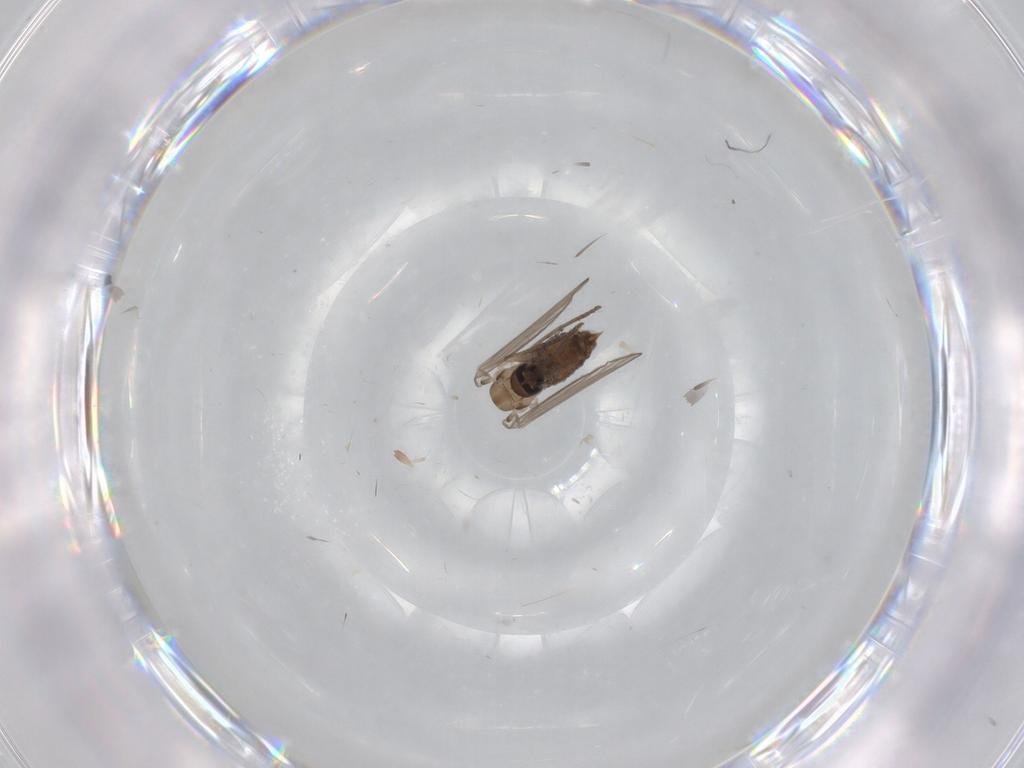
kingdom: Animalia
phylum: Arthropoda
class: Insecta
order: Diptera
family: Psychodidae
